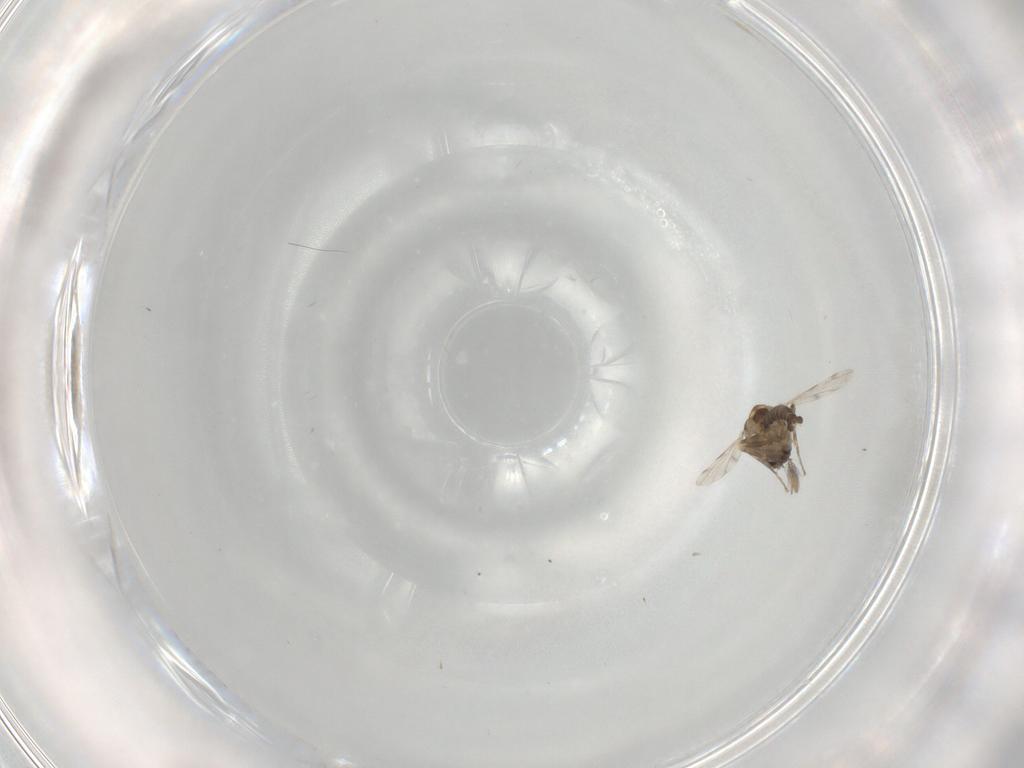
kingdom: Animalia
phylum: Arthropoda
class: Insecta
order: Diptera
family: Ceratopogonidae
